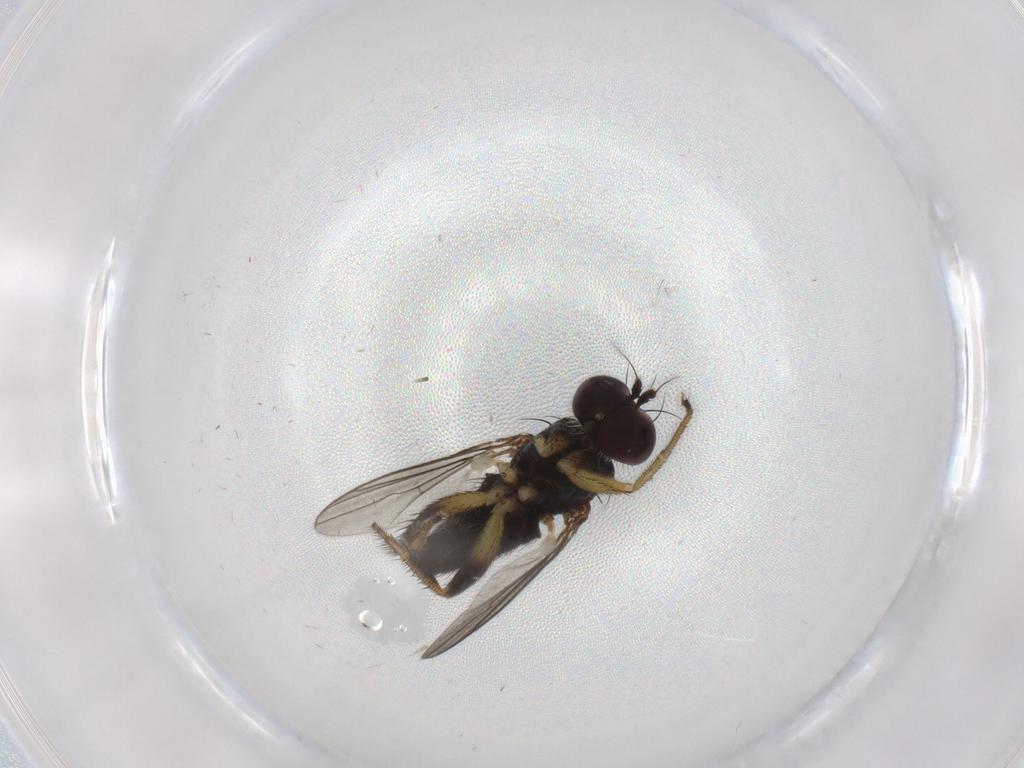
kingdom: Animalia
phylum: Arthropoda
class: Insecta
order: Diptera
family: Dolichopodidae
